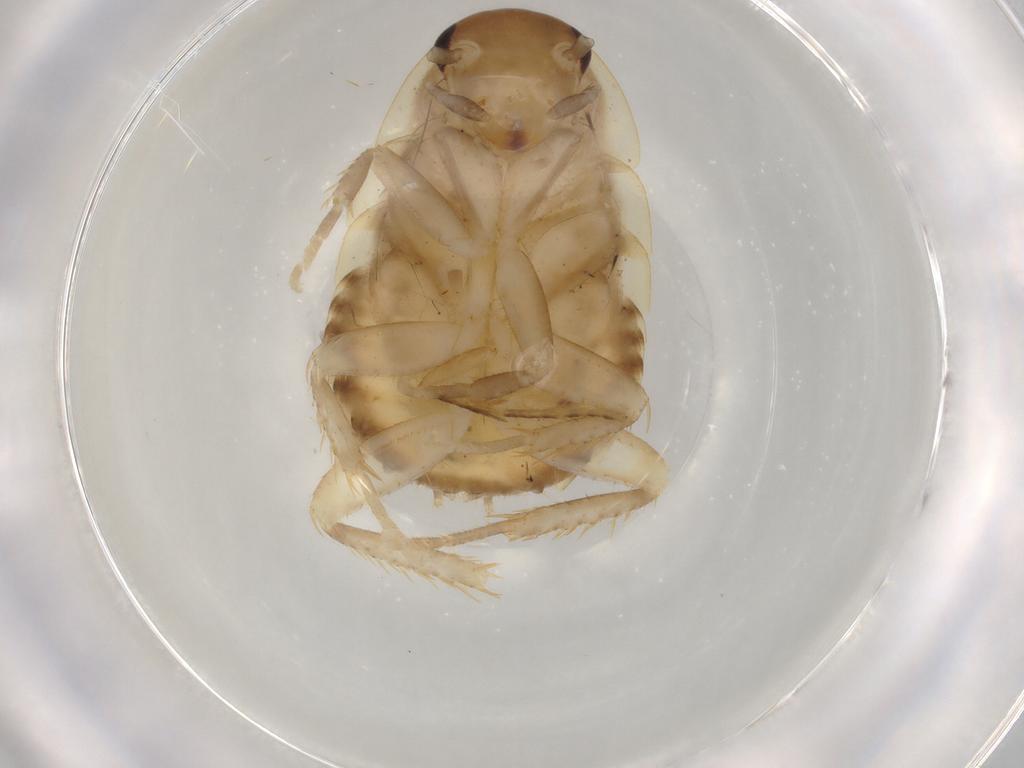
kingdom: Animalia
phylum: Arthropoda
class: Insecta
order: Blattodea
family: Blaberidae
